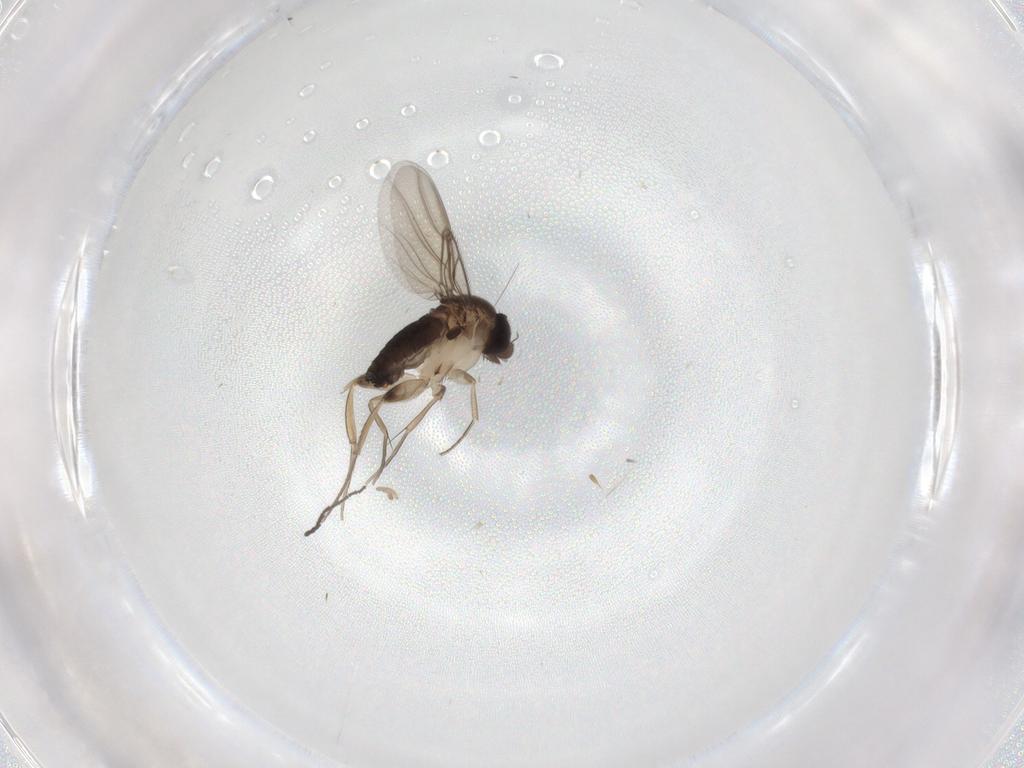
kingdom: Animalia
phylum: Arthropoda
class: Insecta
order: Diptera
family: Psychodidae
